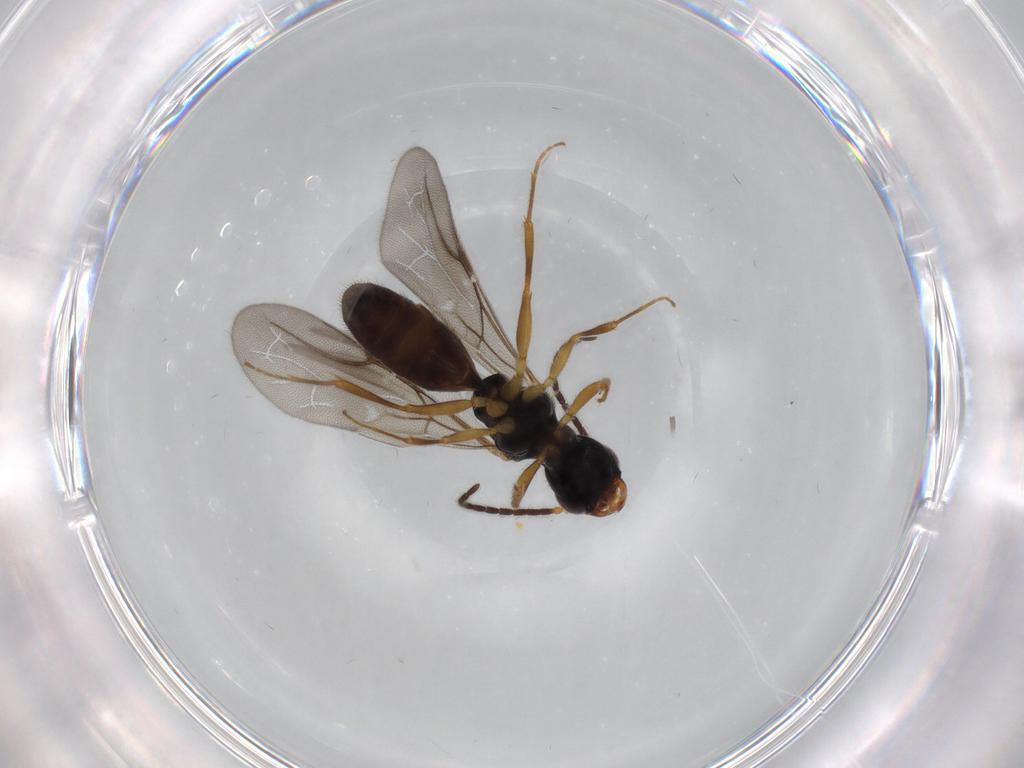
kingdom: Animalia
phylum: Arthropoda
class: Insecta
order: Hymenoptera
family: Bethylidae
